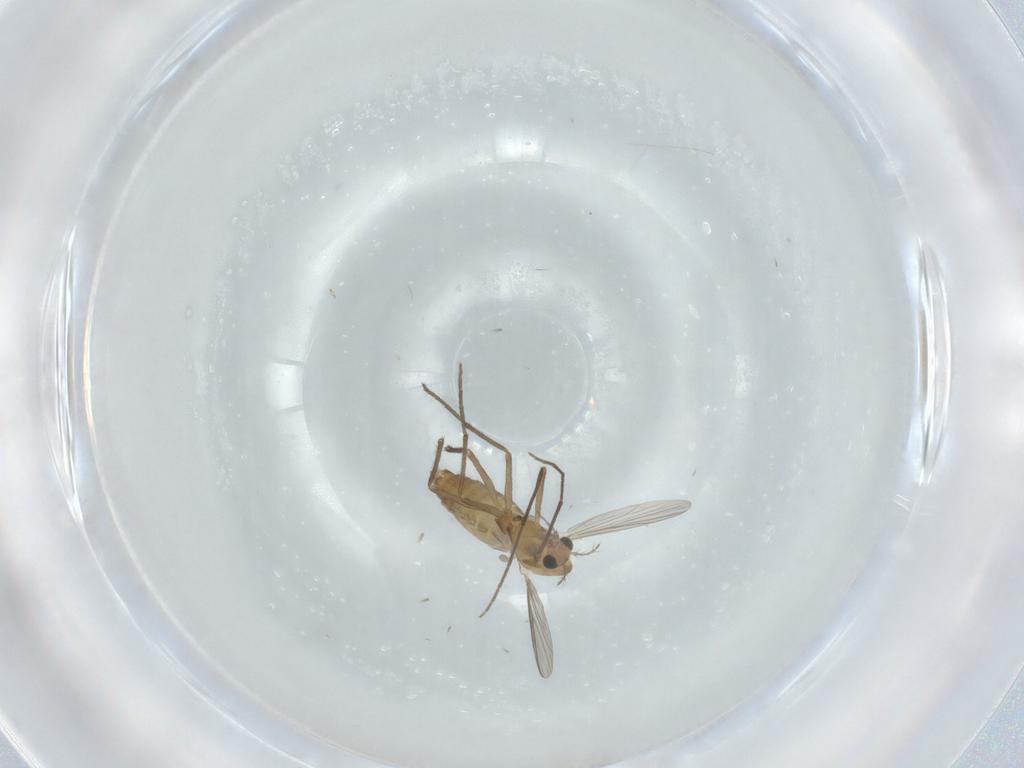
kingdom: Animalia
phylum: Arthropoda
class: Insecta
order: Diptera
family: Chironomidae
